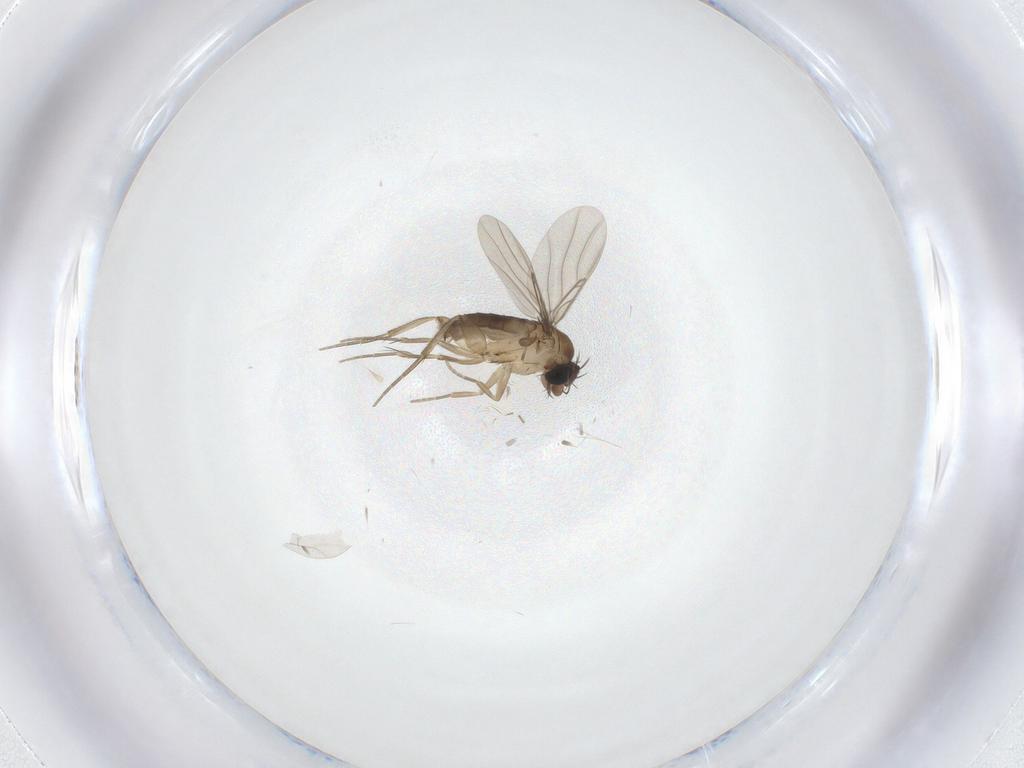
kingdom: Animalia
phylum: Arthropoda
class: Insecta
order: Diptera
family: Phoridae
